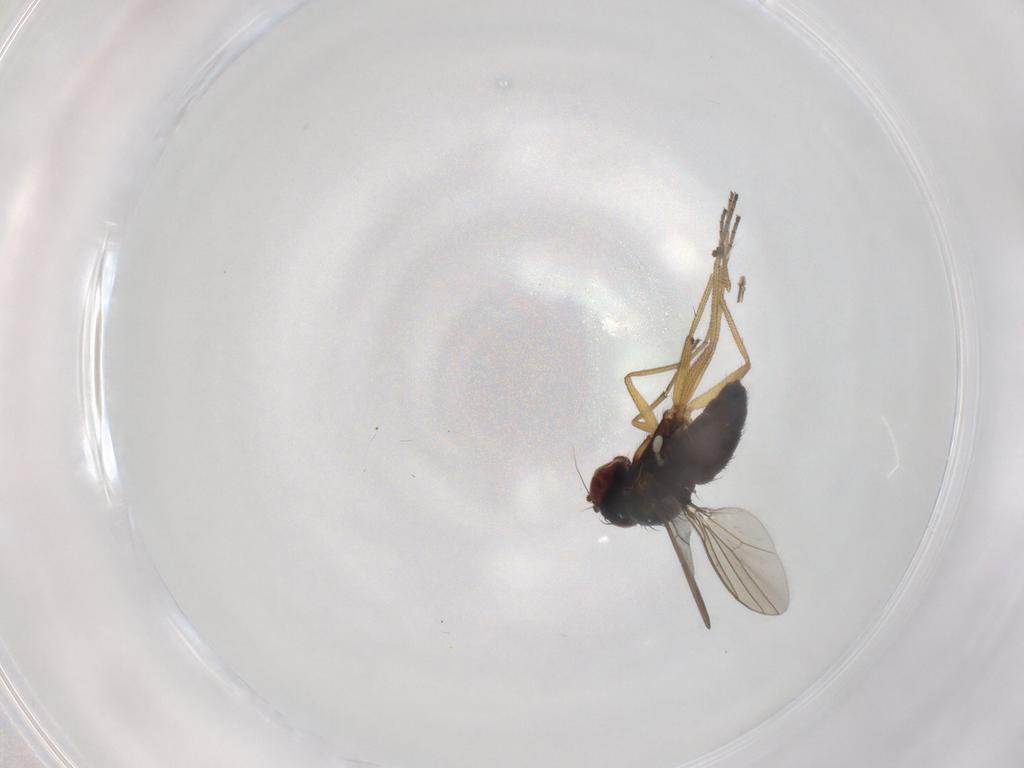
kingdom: Animalia
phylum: Arthropoda
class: Insecta
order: Diptera
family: Dolichopodidae
